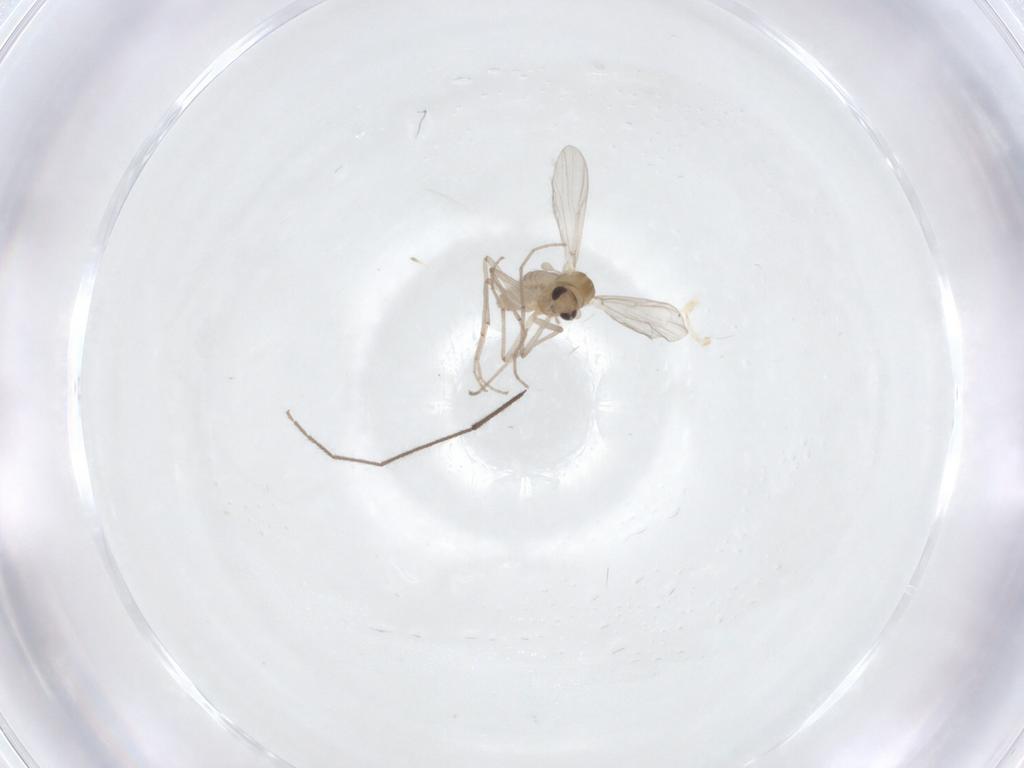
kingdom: Animalia
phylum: Arthropoda
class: Insecta
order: Diptera
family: Chironomidae
